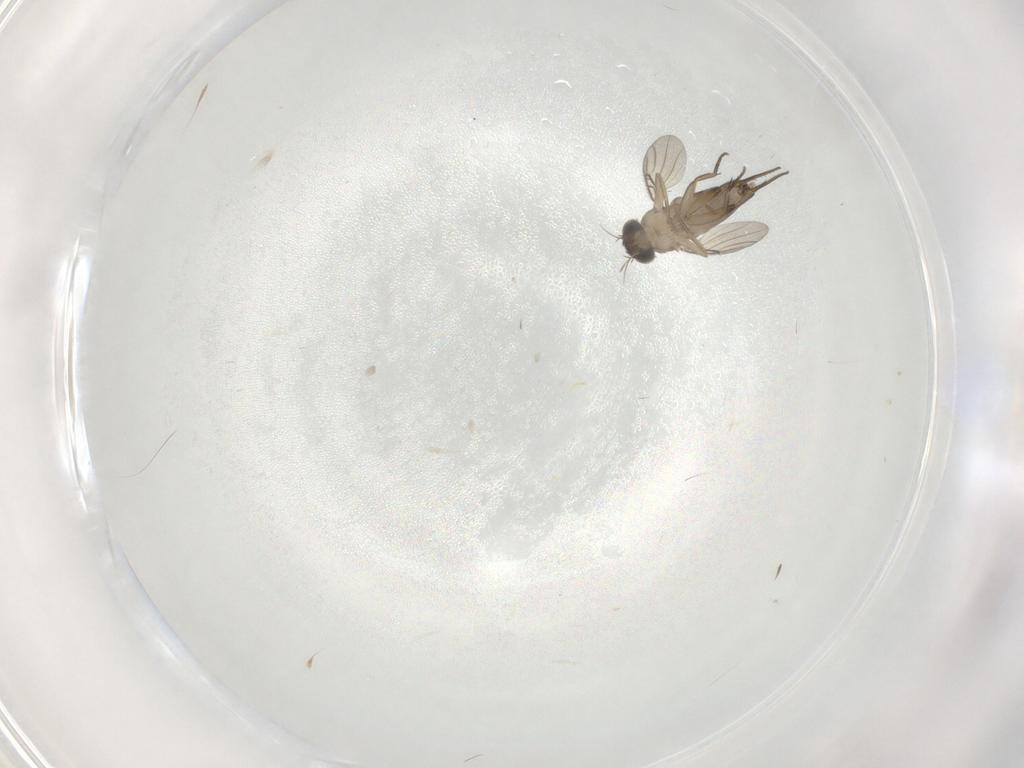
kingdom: Animalia
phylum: Arthropoda
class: Insecta
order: Diptera
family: Phoridae
